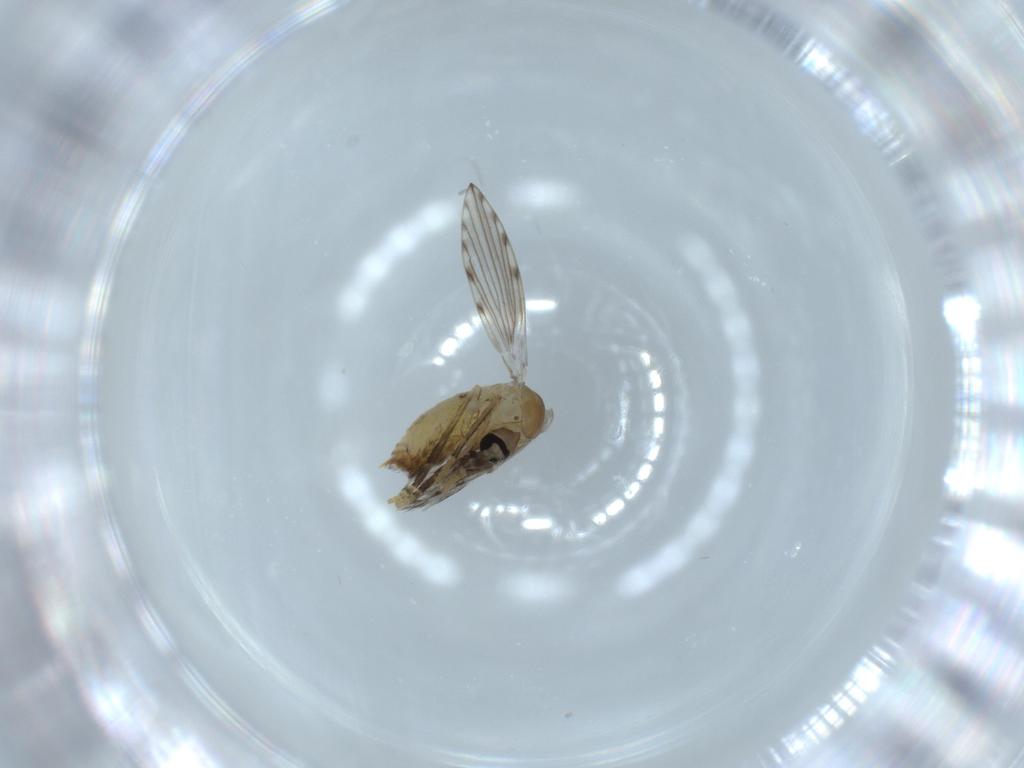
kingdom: Animalia
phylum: Arthropoda
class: Insecta
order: Diptera
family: Psychodidae
